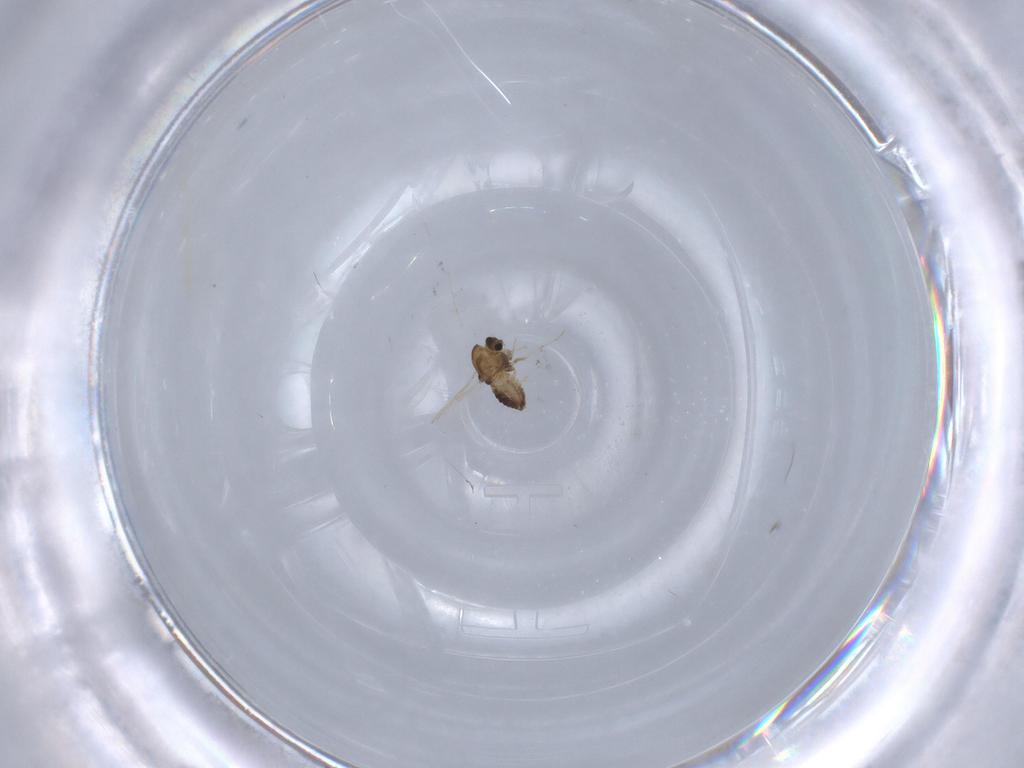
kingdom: Animalia
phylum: Arthropoda
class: Insecta
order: Diptera
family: Chironomidae
